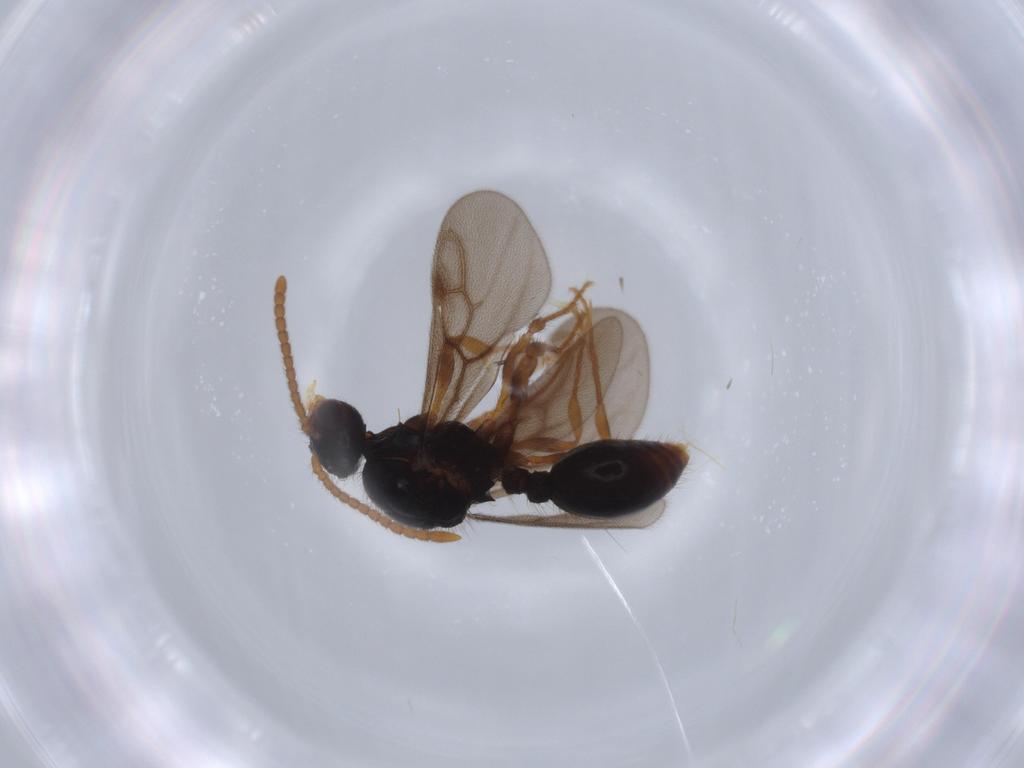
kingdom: Animalia
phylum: Arthropoda
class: Insecta
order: Hymenoptera
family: Formicidae
